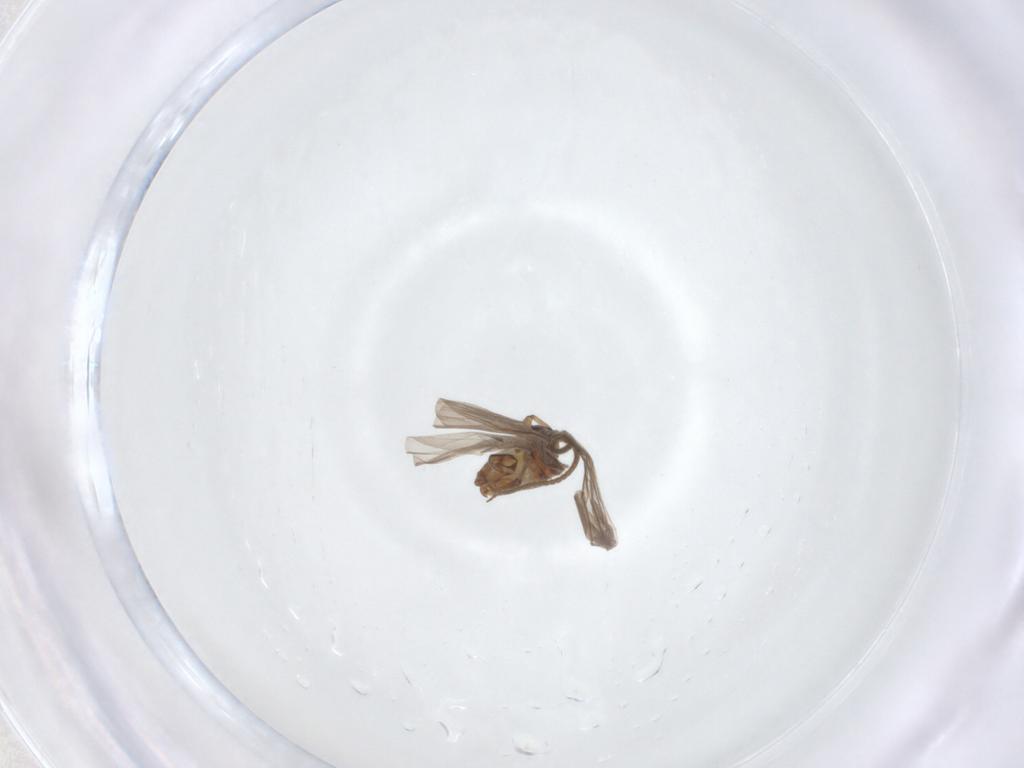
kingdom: Animalia
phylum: Arthropoda
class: Insecta
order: Neuroptera
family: Coniopterygidae
